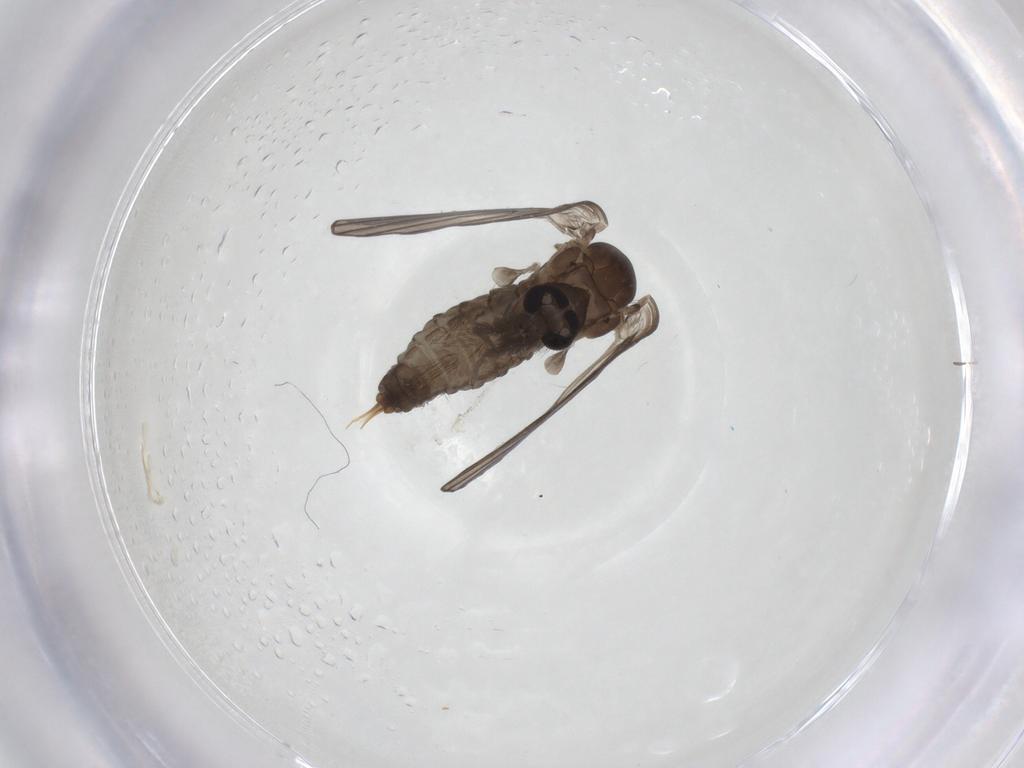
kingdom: Animalia
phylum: Arthropoda
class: Insecta
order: Diptera
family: Psychodidae
